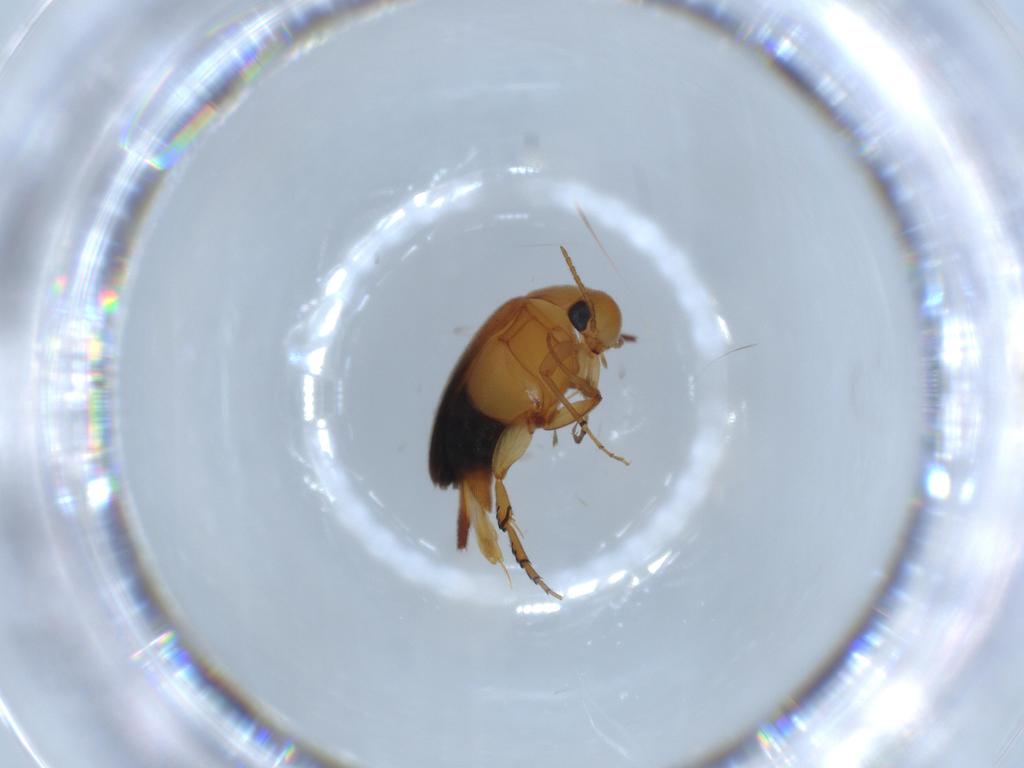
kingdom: Animalia
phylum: Arthropoda
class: Insecta
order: Coleoptera
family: Mordellidae
